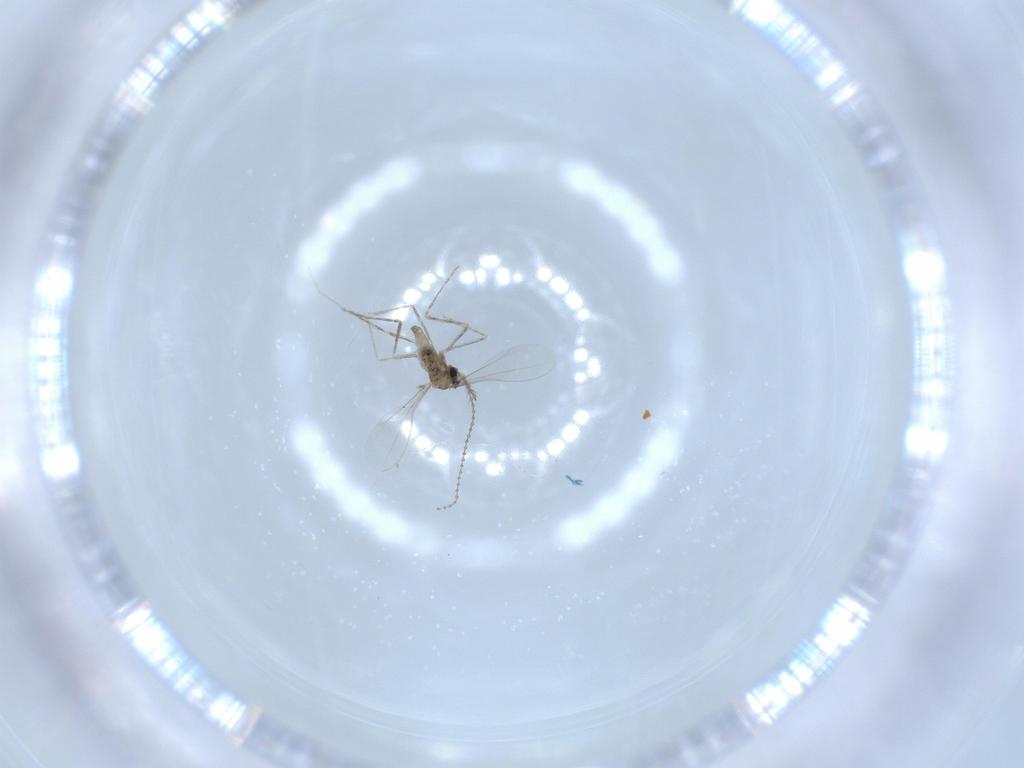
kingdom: Animalia
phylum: Arthropoda
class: Insecta
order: Diptera
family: Cecidomyiidae
